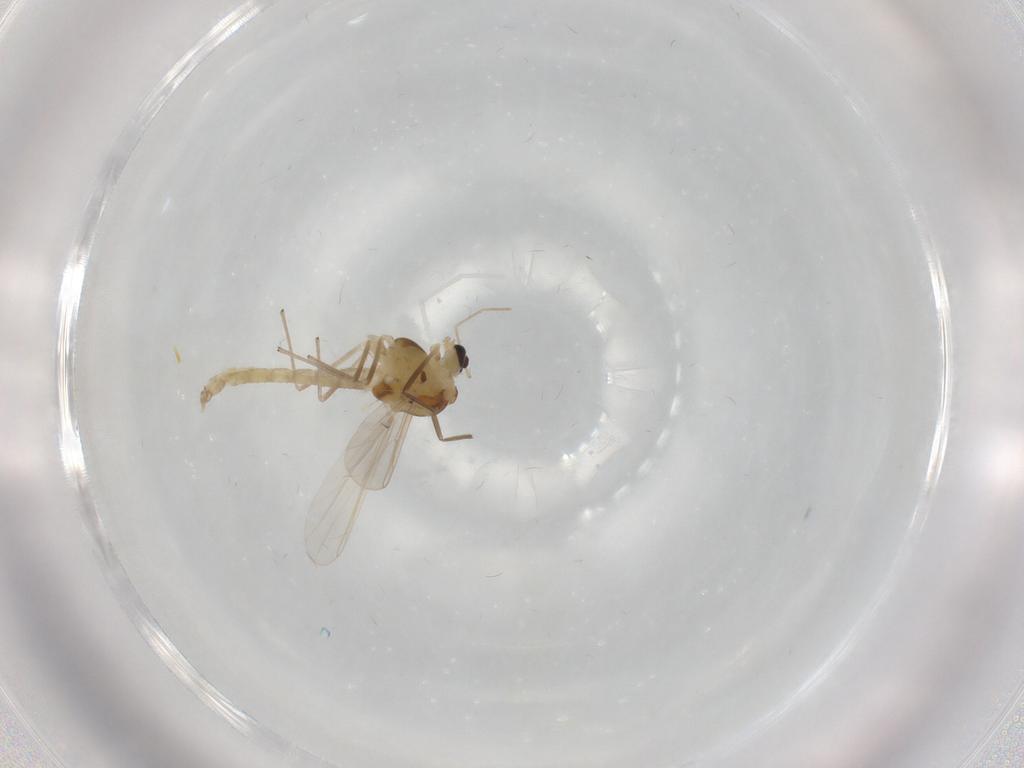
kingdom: Animalia
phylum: Arthropoda
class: Insecta
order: Diptera
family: Chironomidae
